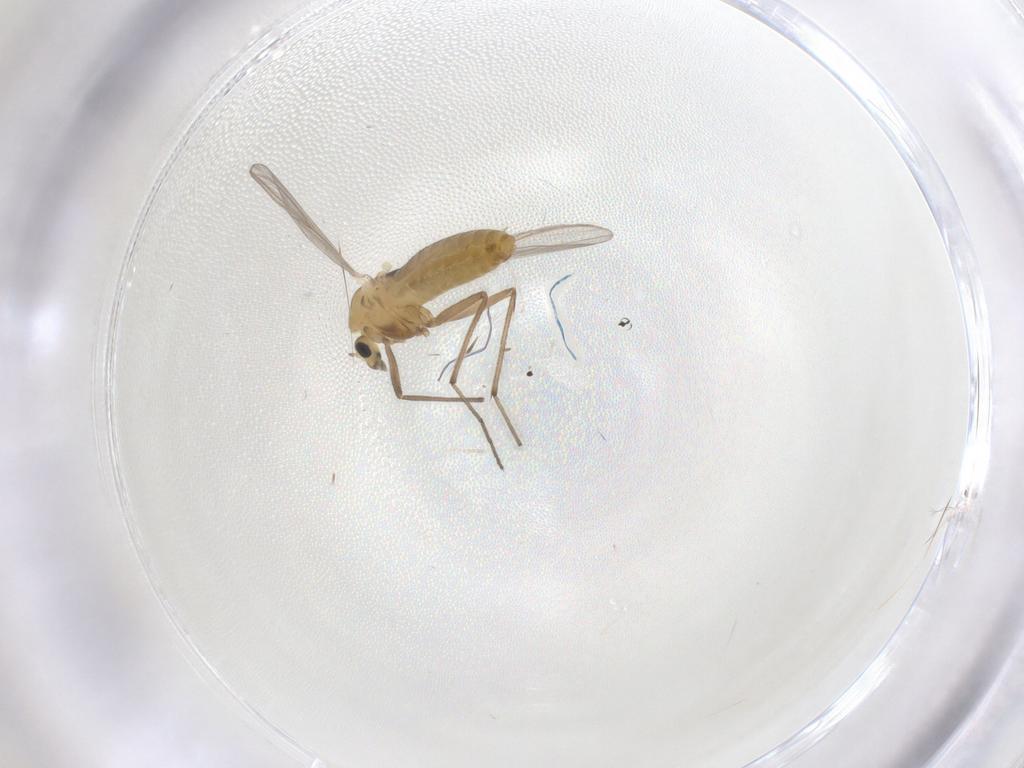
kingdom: Animalia
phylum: Arthropoda
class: Insecta
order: Diptera
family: Chironomidae
